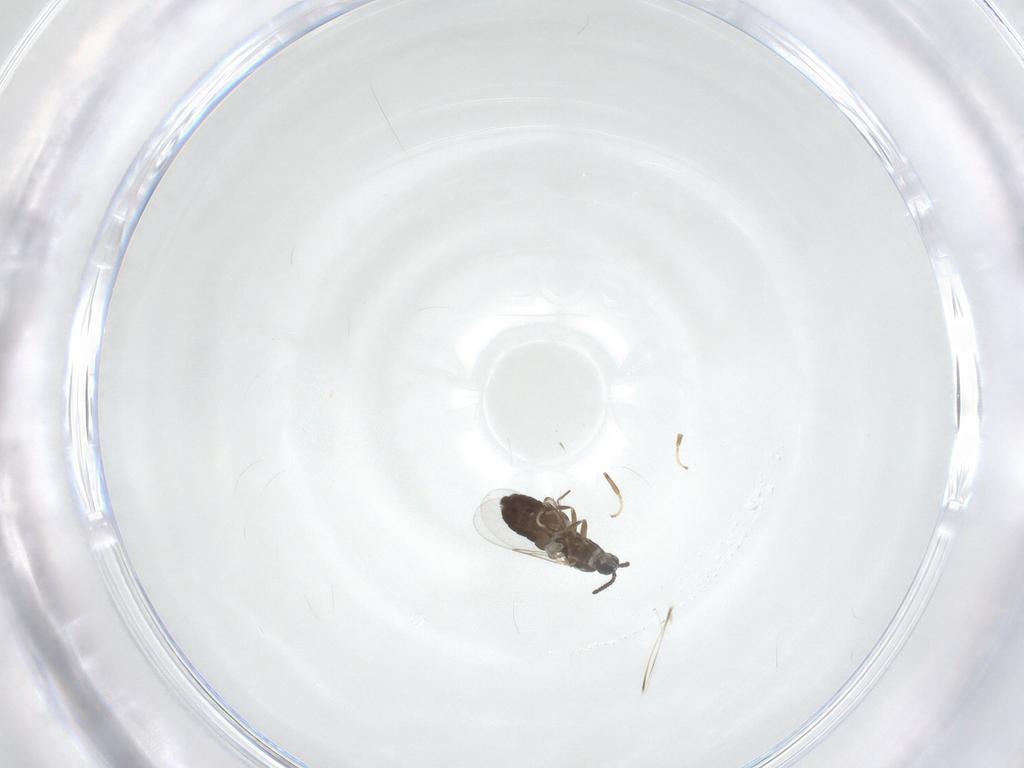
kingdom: Animalia
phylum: Arthropoda
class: Insecta
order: Diptera
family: Scatopsidae
